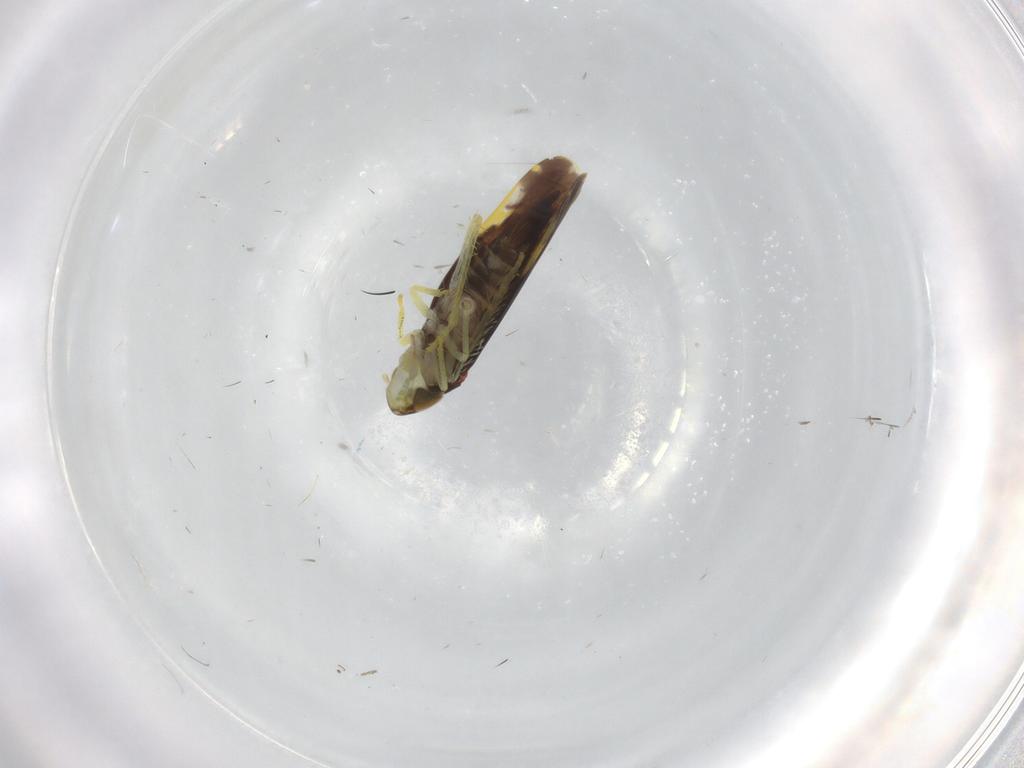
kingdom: Animalia
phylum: Arthropoda
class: Insecta
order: Hemiptera
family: Cicadellidae
